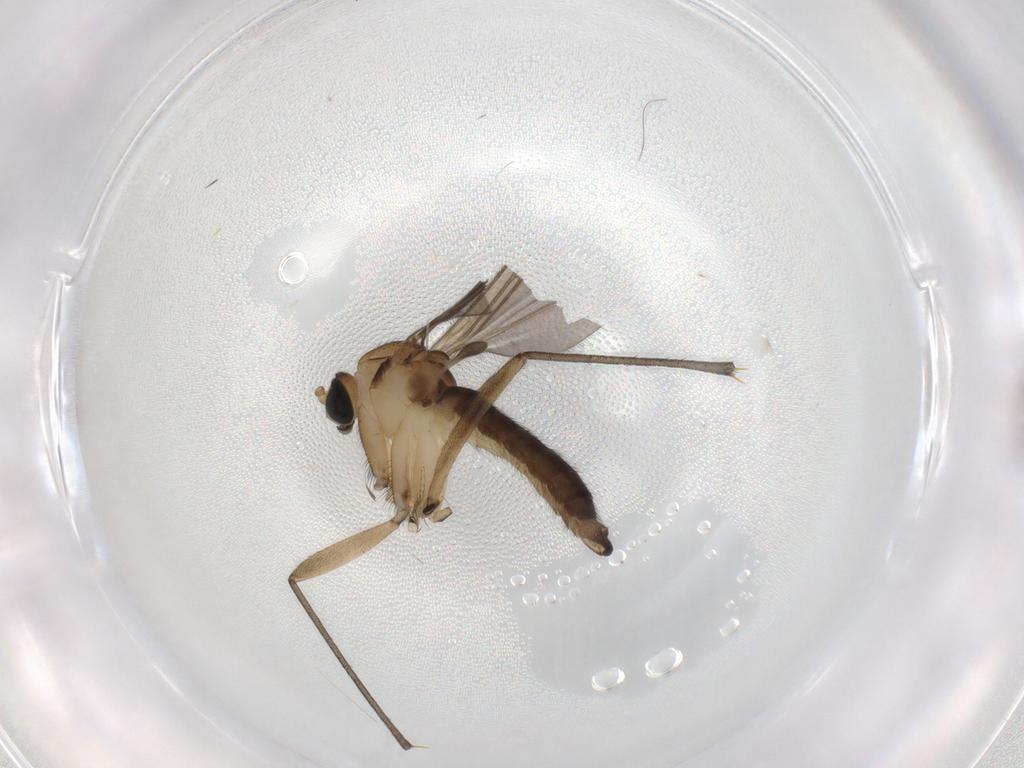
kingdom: Animalia
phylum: Arthropoda
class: Insecta
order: Diptera
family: Sciaridae
